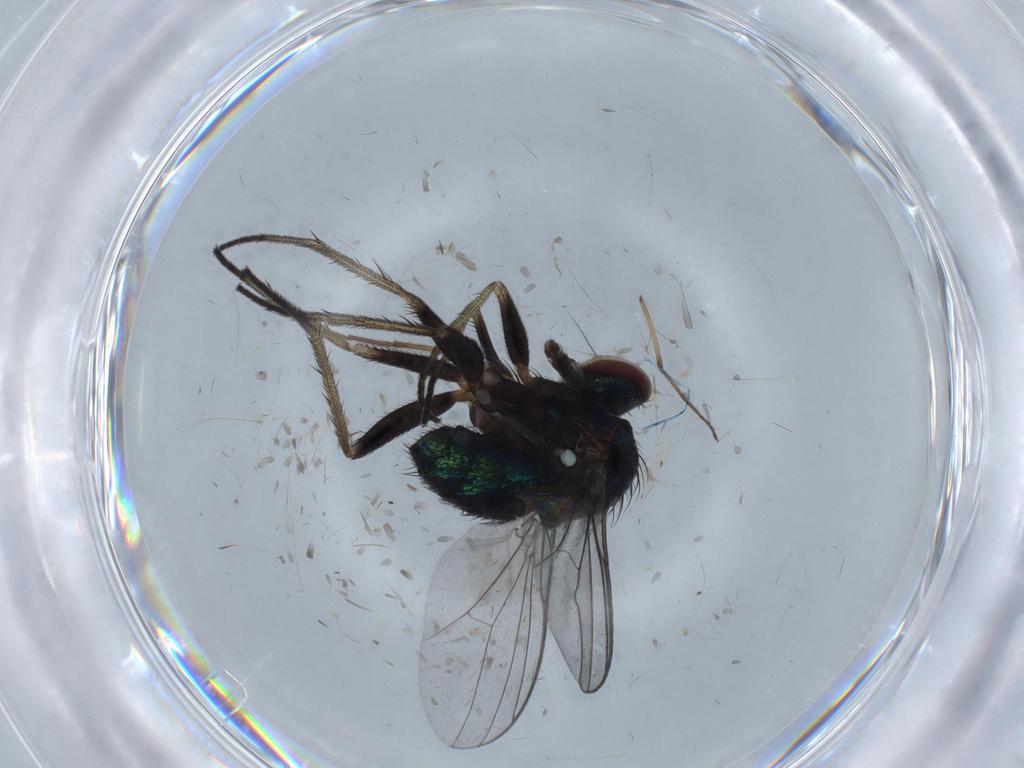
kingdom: Animalia
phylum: Arthropoda
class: Insecta
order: Diptera
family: Dolichopodidae
